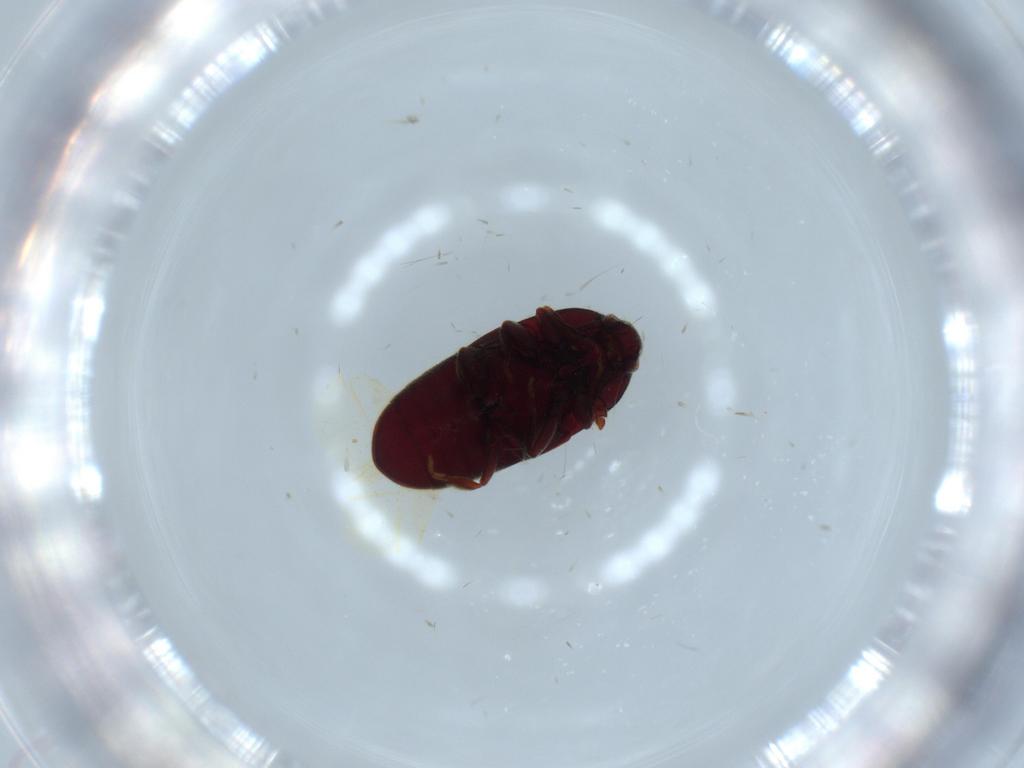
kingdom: Animalia
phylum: Arthropoda
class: Insecta
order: Coleoptera
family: Throscidae
